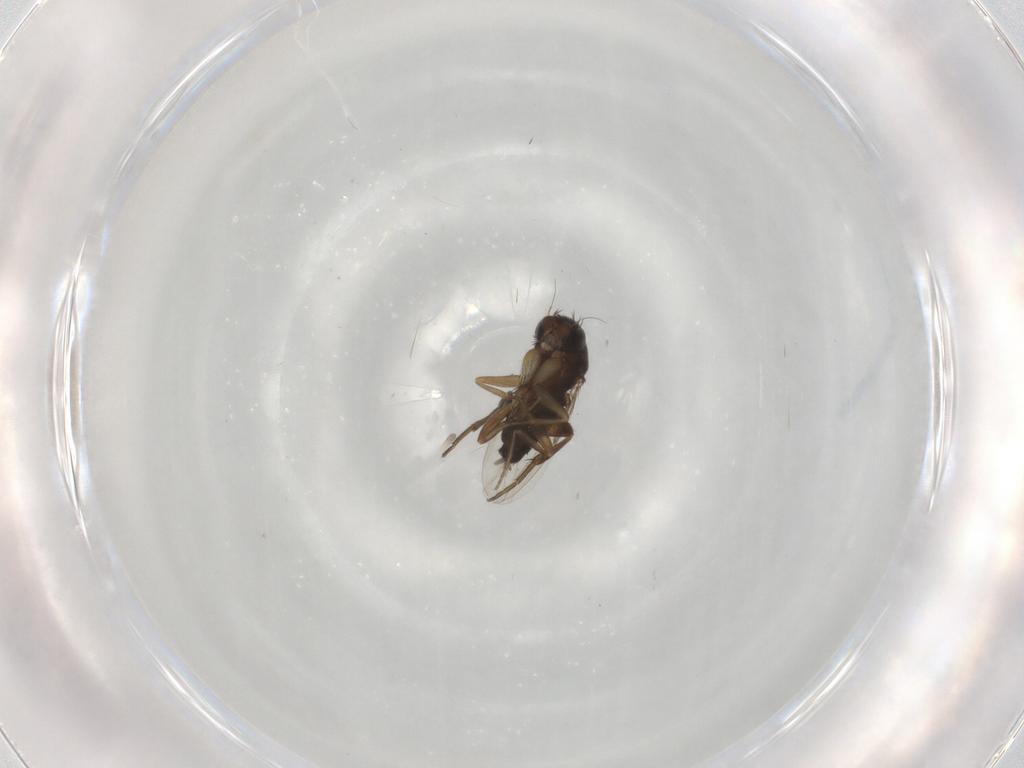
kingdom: Animalia
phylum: Arthropoda
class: Insecta
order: Diptera
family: Phoridae
